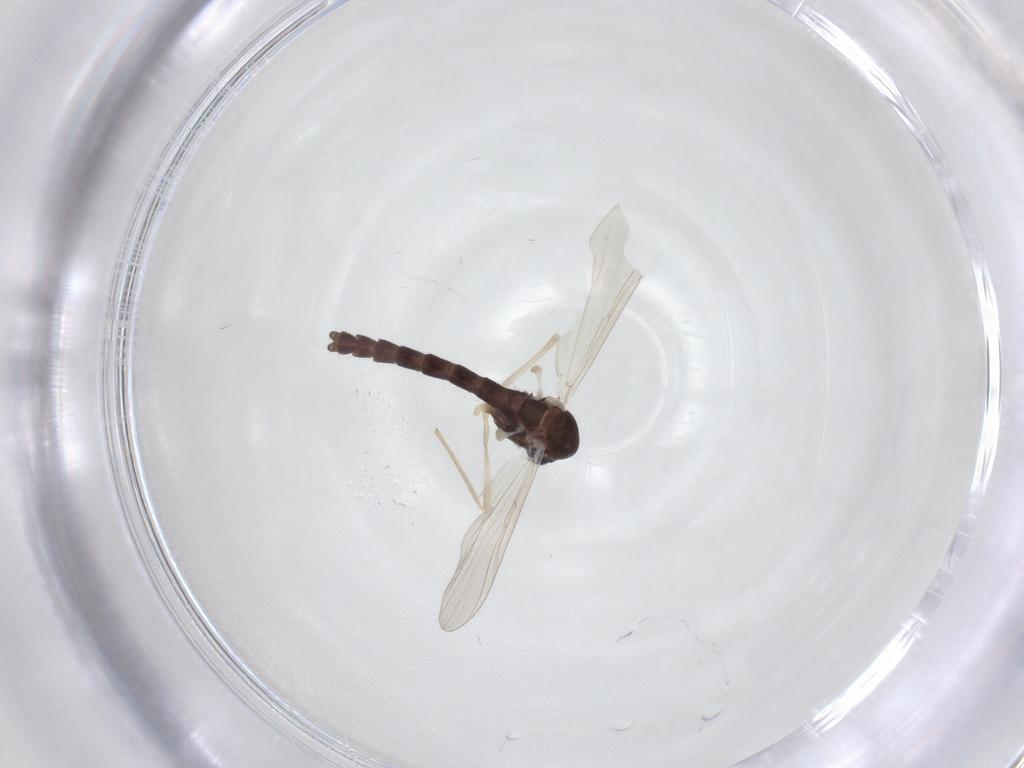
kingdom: Animalia
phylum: Arthropoda
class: Insecta
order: Diptera
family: Chironomidae
